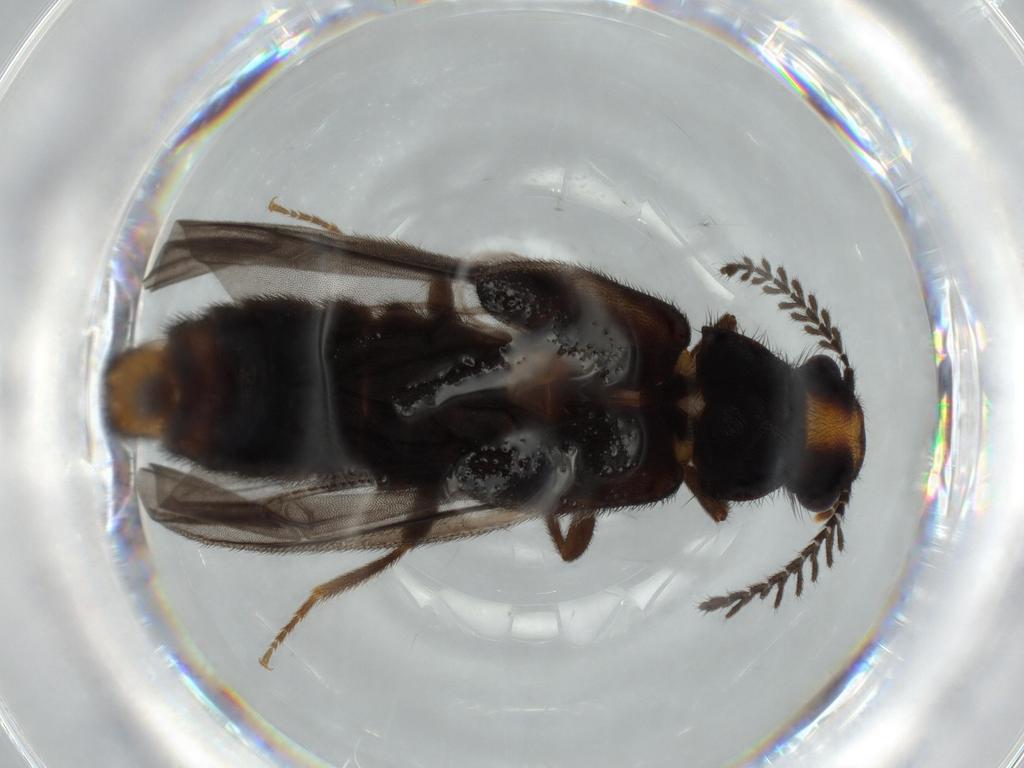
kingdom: Animalia
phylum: Arthropoda
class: Insecta
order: Coleoptera
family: Phengodidae
